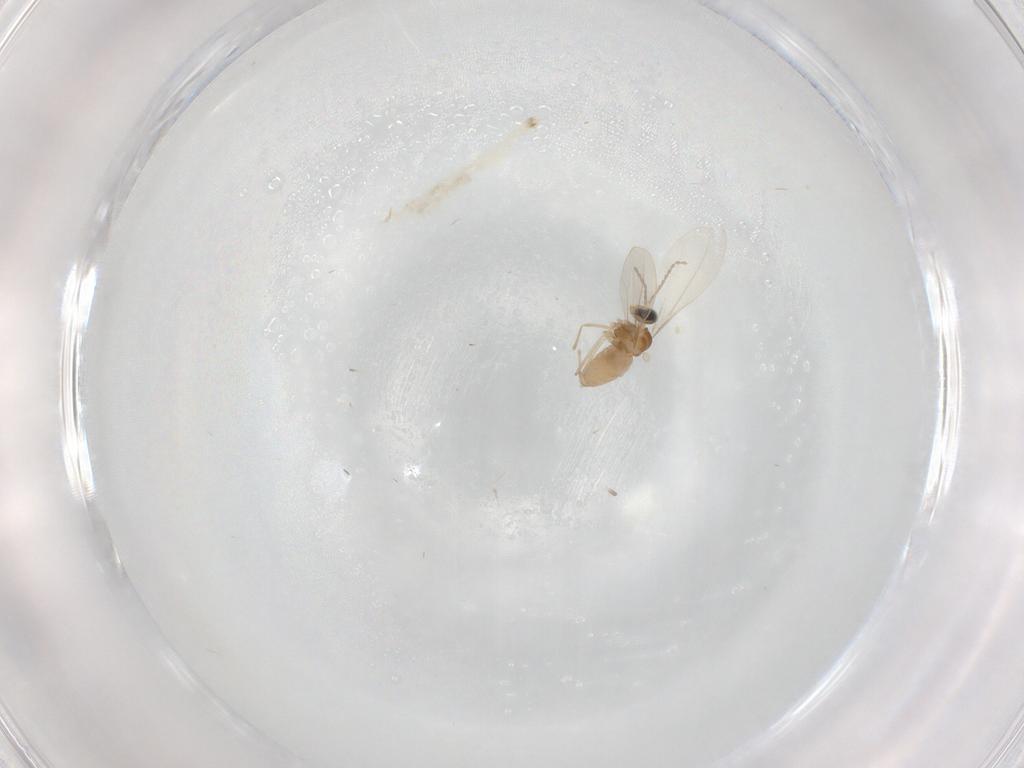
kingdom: Animalia
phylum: Arthropoda
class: Insecta
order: Diptera
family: Cecidomyiidae
